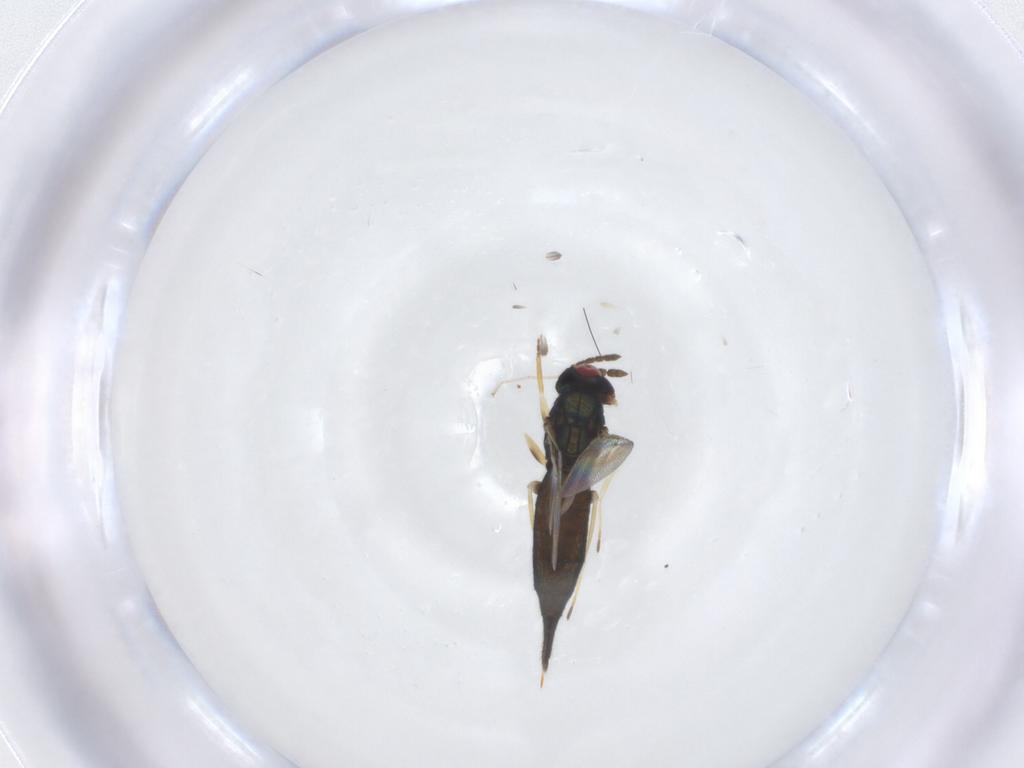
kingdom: Animalia
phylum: Arthropoda
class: Insecta
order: Hymenoptera
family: Eulophidae
